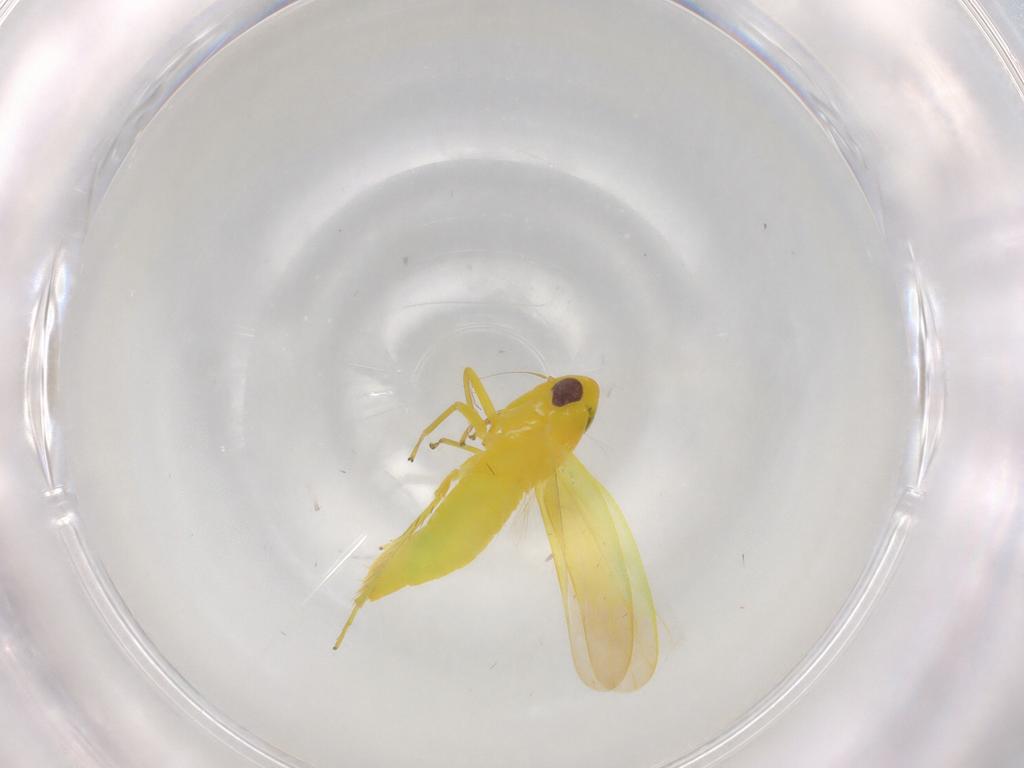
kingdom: Animalia
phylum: Arthropoda
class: Insecta
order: Hemiptera
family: Cicadellidae
